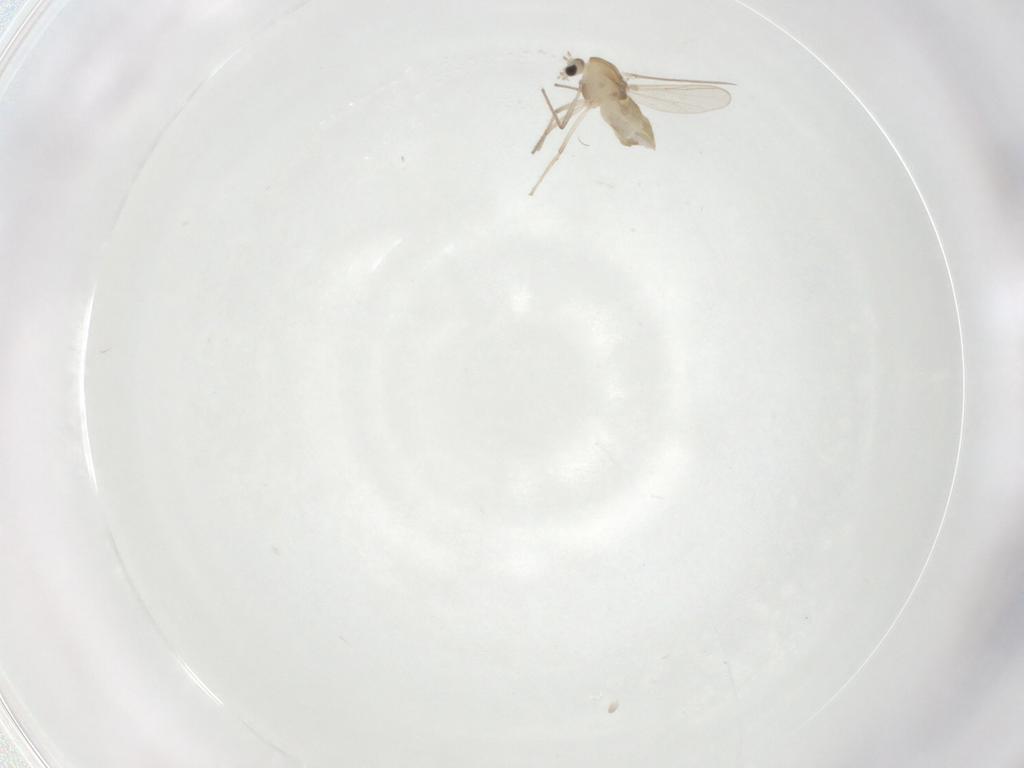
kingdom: Animalia
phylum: Arthropoda
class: Insecta
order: Diptera
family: Chironomidae
